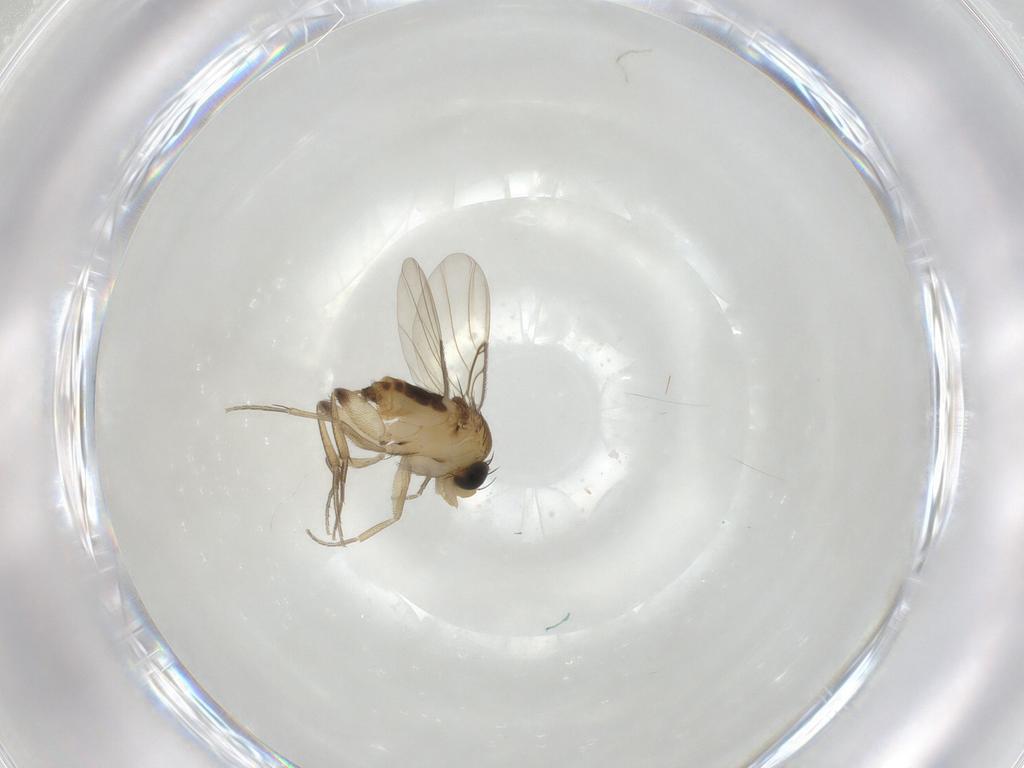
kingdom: Animalia
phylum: Arthropoda
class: Insecta
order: Diptera
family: Phoridae
